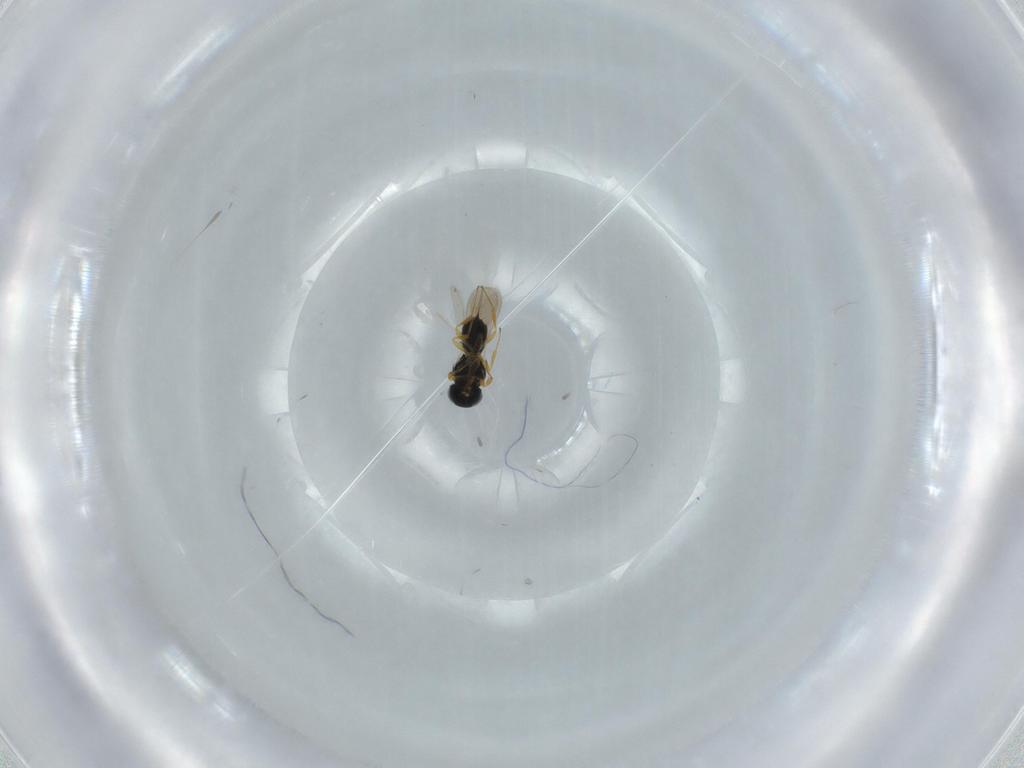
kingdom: Animalia
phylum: Arthropoda
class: Insecta
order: Hymenoptera
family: Scelionidae
